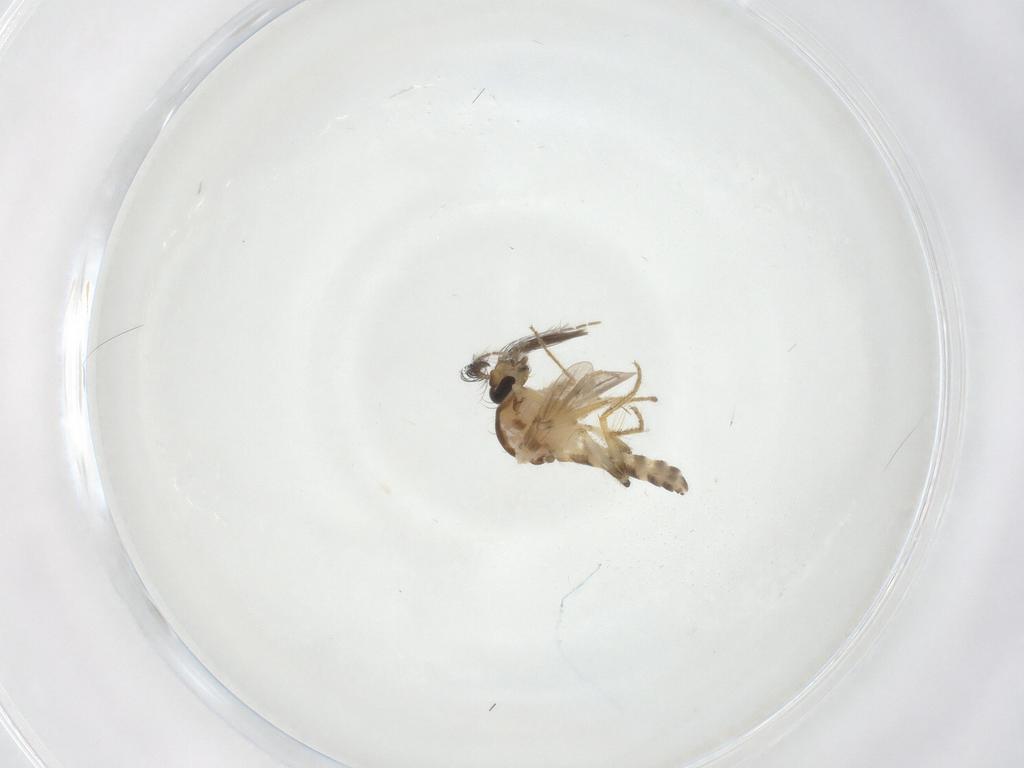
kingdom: Animalia
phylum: Arthropoda
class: Insecta
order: Diptera
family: Ceratopogonidae
